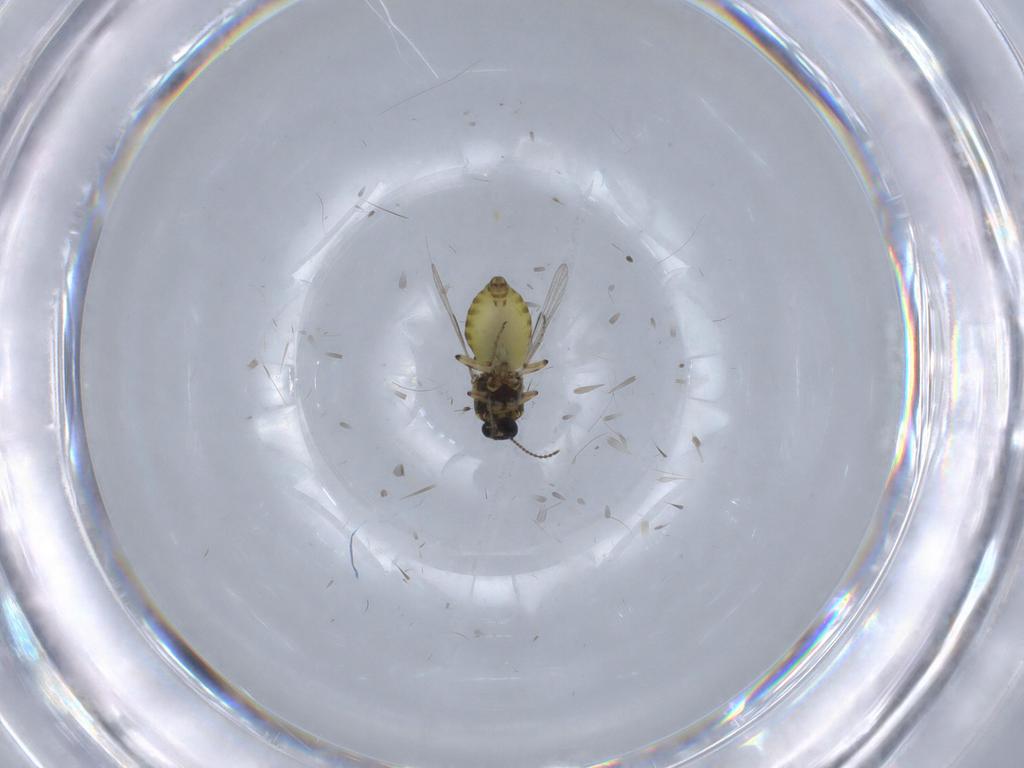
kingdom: Animalia
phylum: Arthropoda
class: Insecta
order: Diptera
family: Ceratopogonidae
